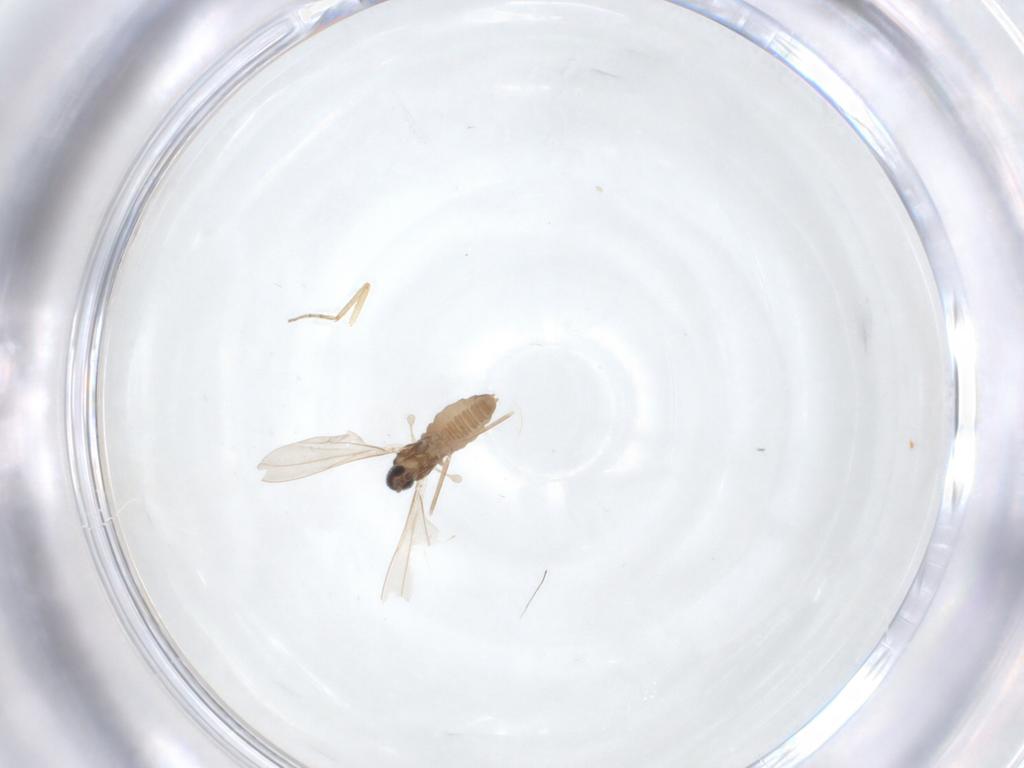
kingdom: Animalia
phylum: Arthropoda
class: Insecta
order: Diptera
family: Cecidomyiidae
